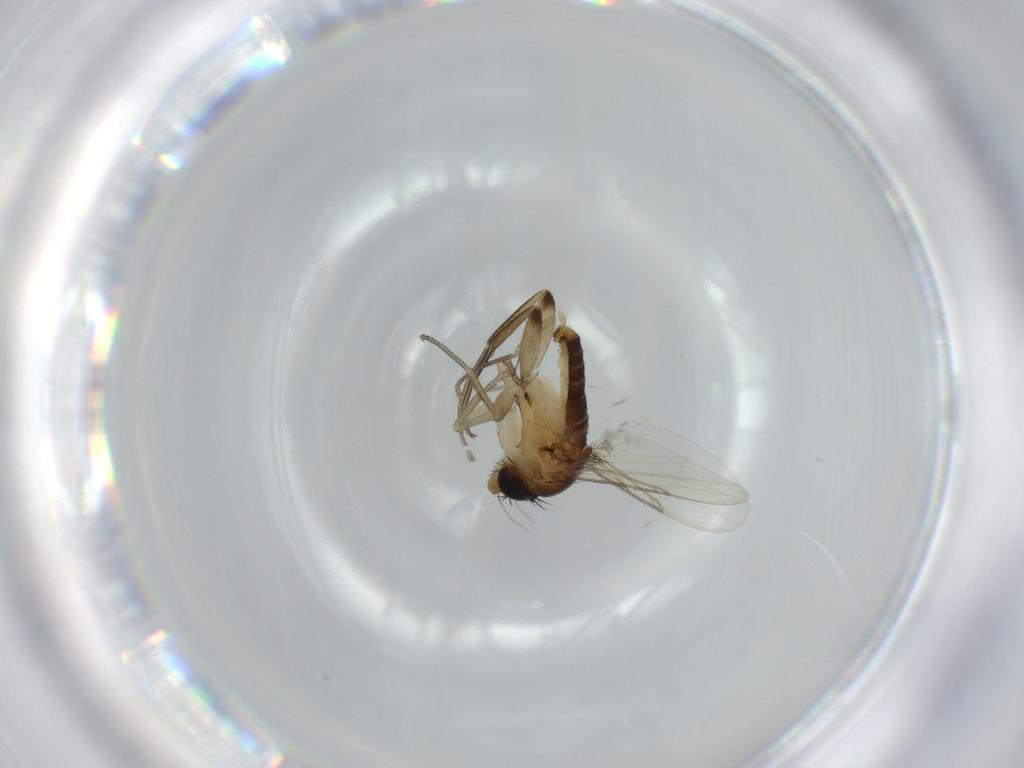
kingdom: Animalia
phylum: Arthropoda
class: Insecta
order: Diptera
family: Phoridae
